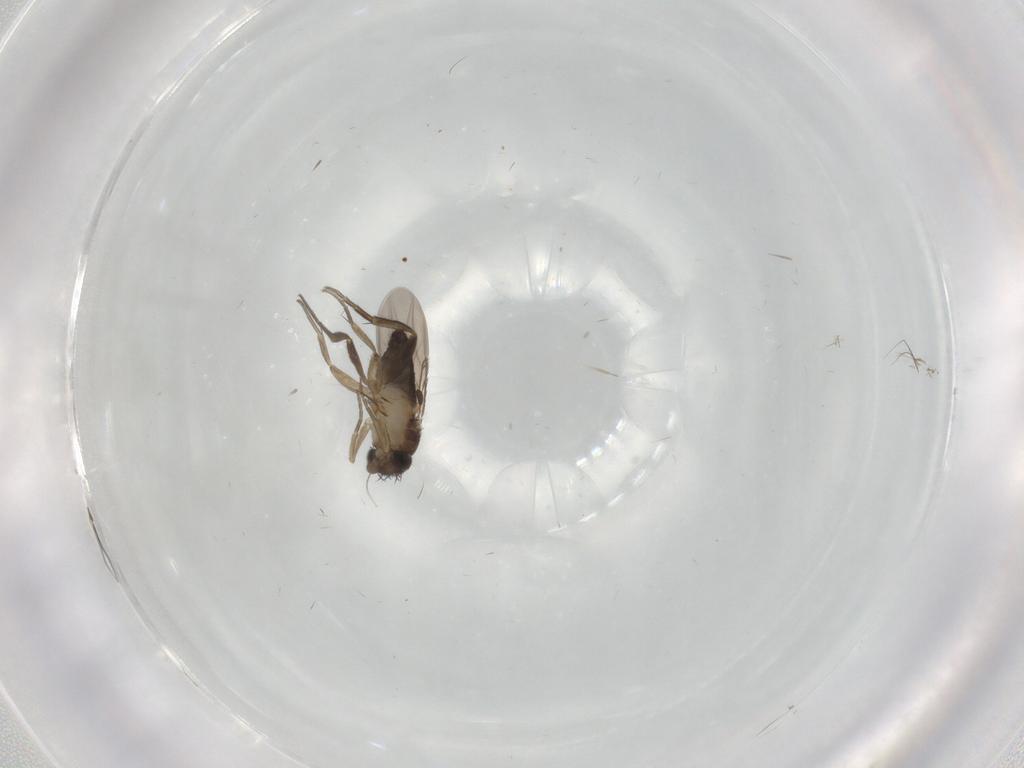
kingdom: Animalia
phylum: Arthropoda
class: Insecta
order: Diptera
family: Phoridae
